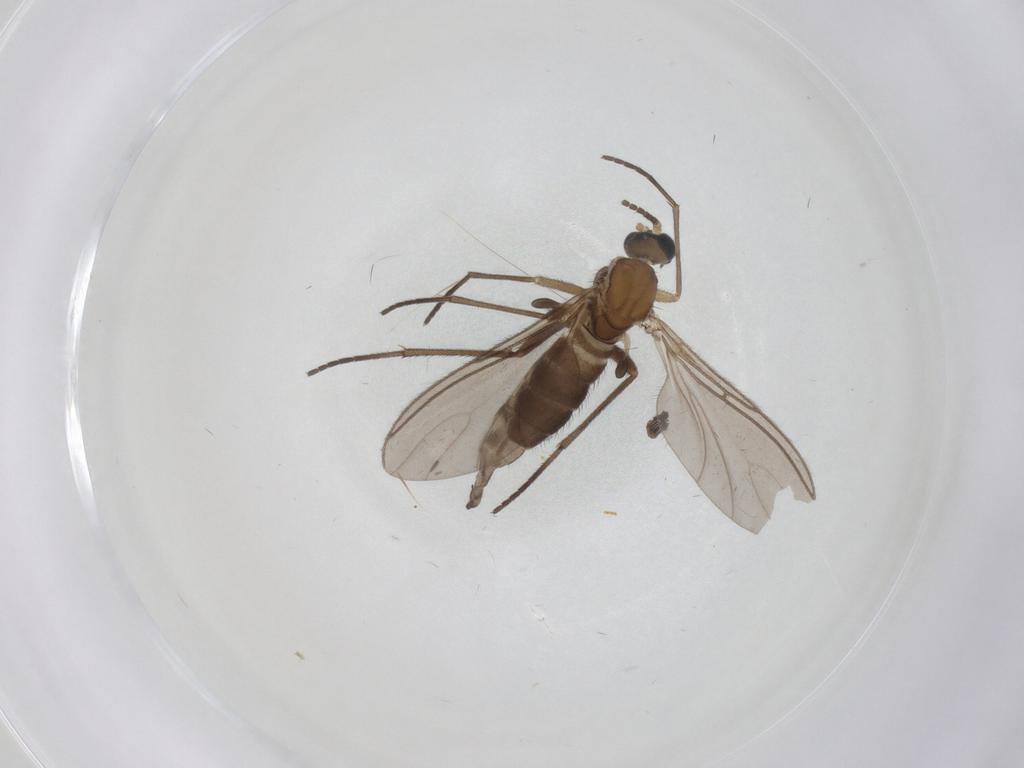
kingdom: Animalia
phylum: Arthropoda
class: Insecta
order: Diptera
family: Sciaridae
